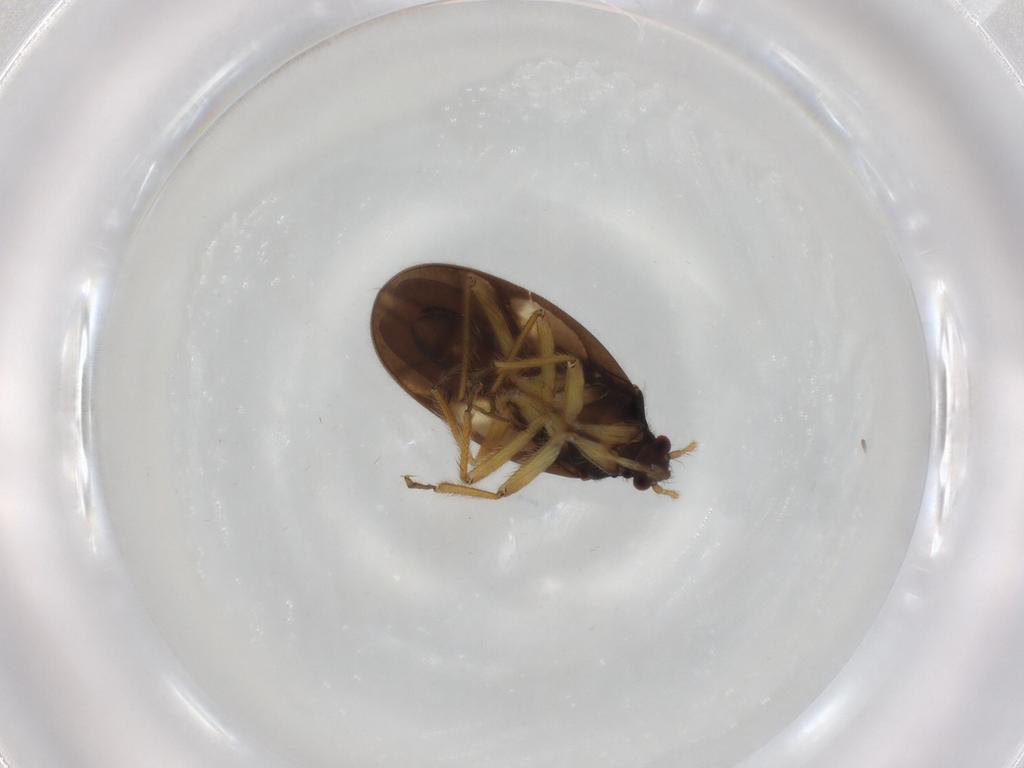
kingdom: Animalia
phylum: Arthropoda
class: Insecta
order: Hemiptera
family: Ceratocombidae
